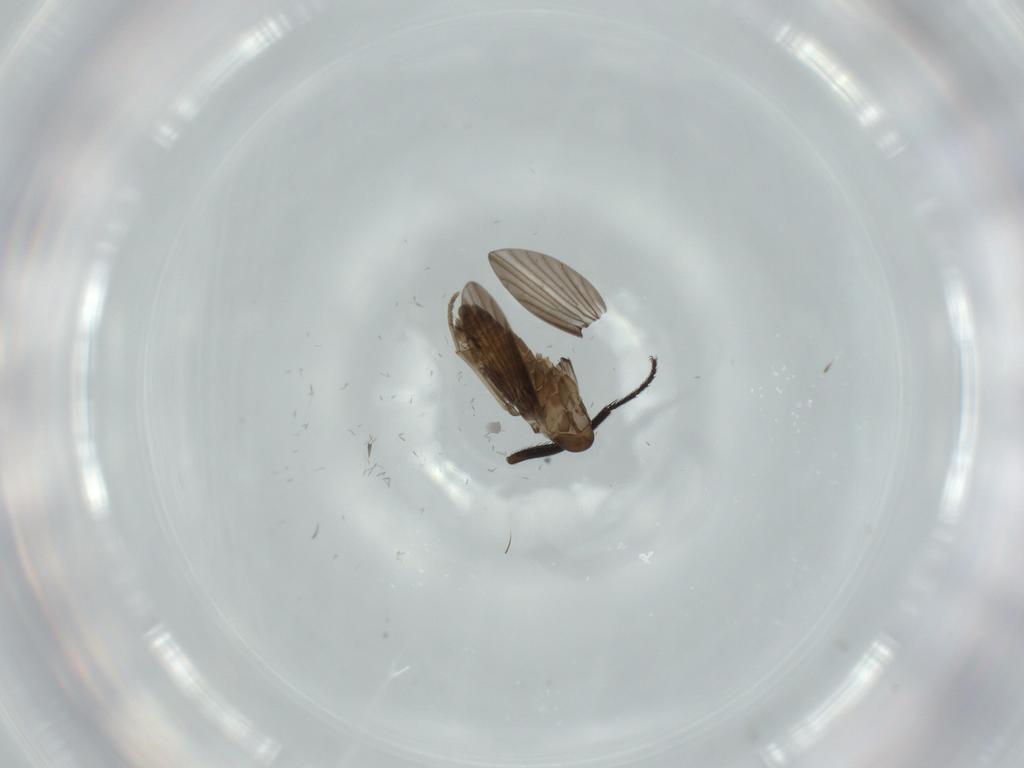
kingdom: Animalia
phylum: Arthropoda
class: Insecta
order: Diptera
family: Psychodidae
